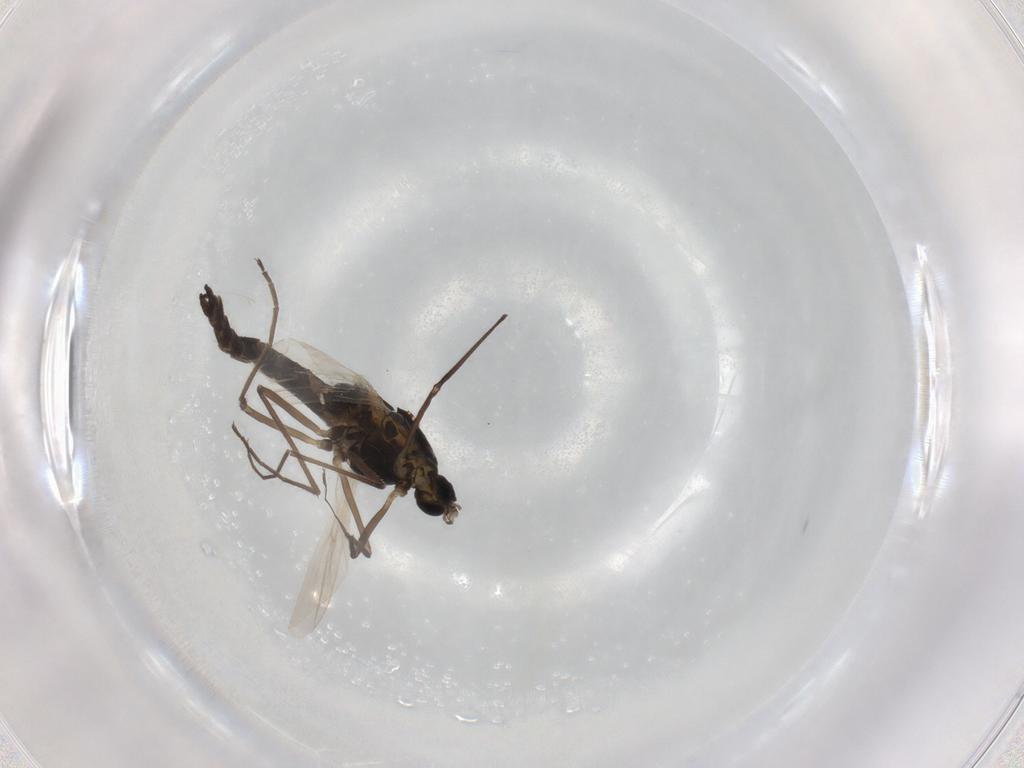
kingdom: Animalia
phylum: Arthropoda
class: Insecta
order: Diptera
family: Chironomidae
